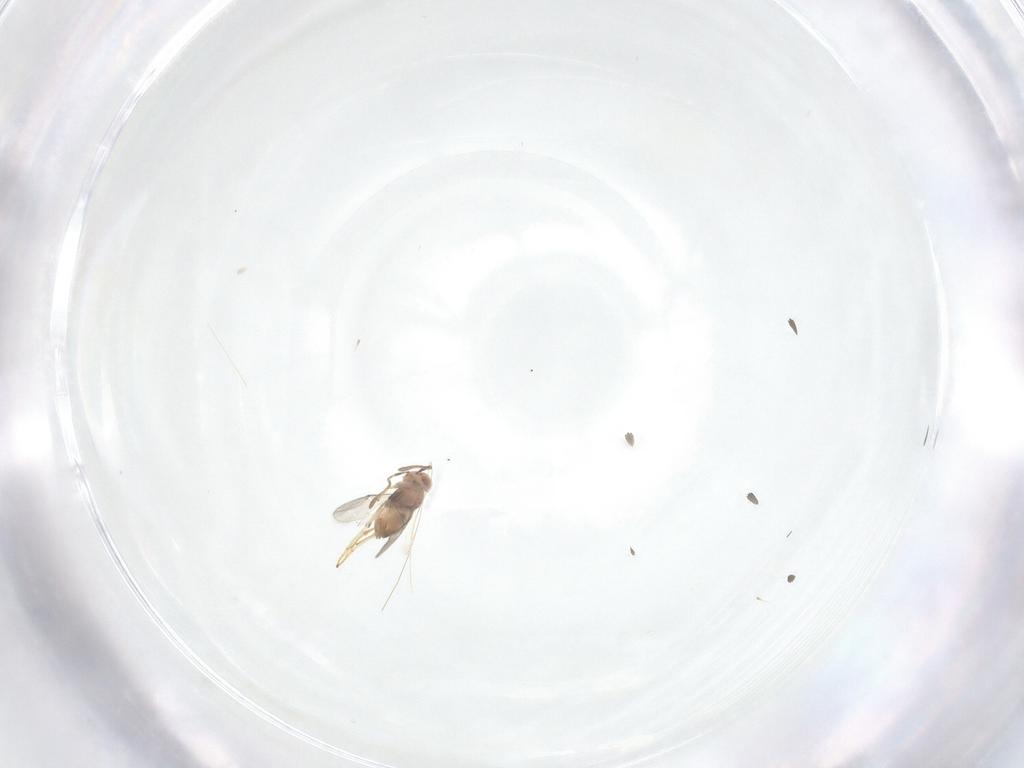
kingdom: Animalia
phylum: Arthropoda
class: Insecta
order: Hymenoptera
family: Encyrtidae
